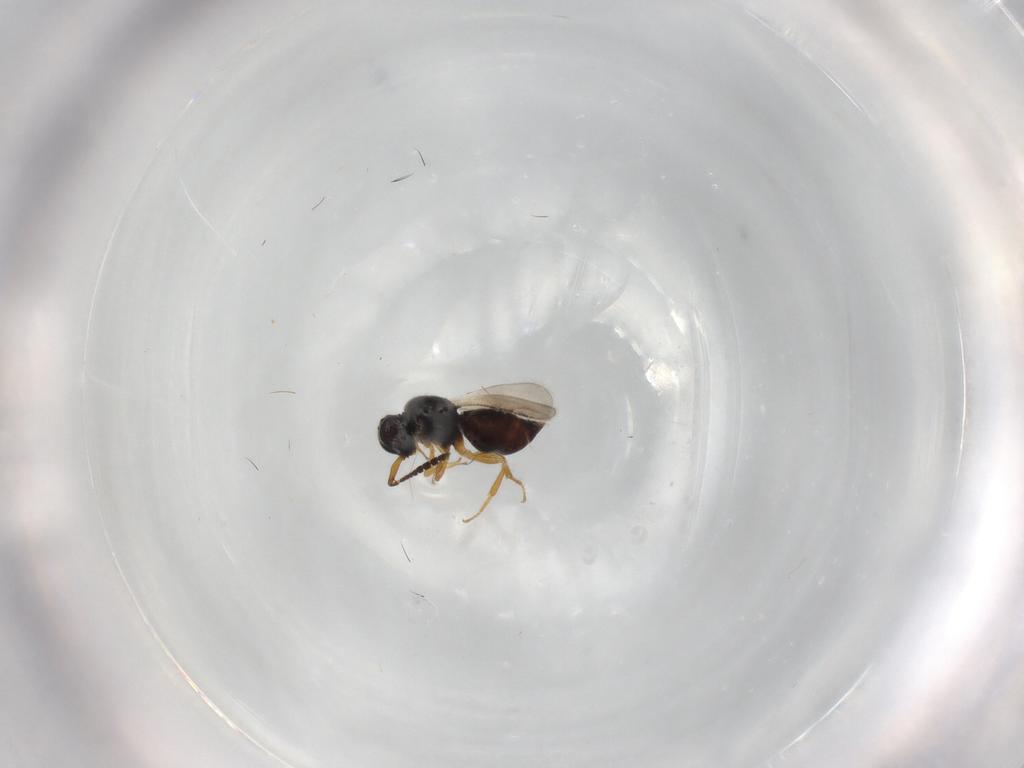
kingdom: Animalia
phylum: Arthropoda
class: Insecta
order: Hymenoptera
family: Ceraphronidae
